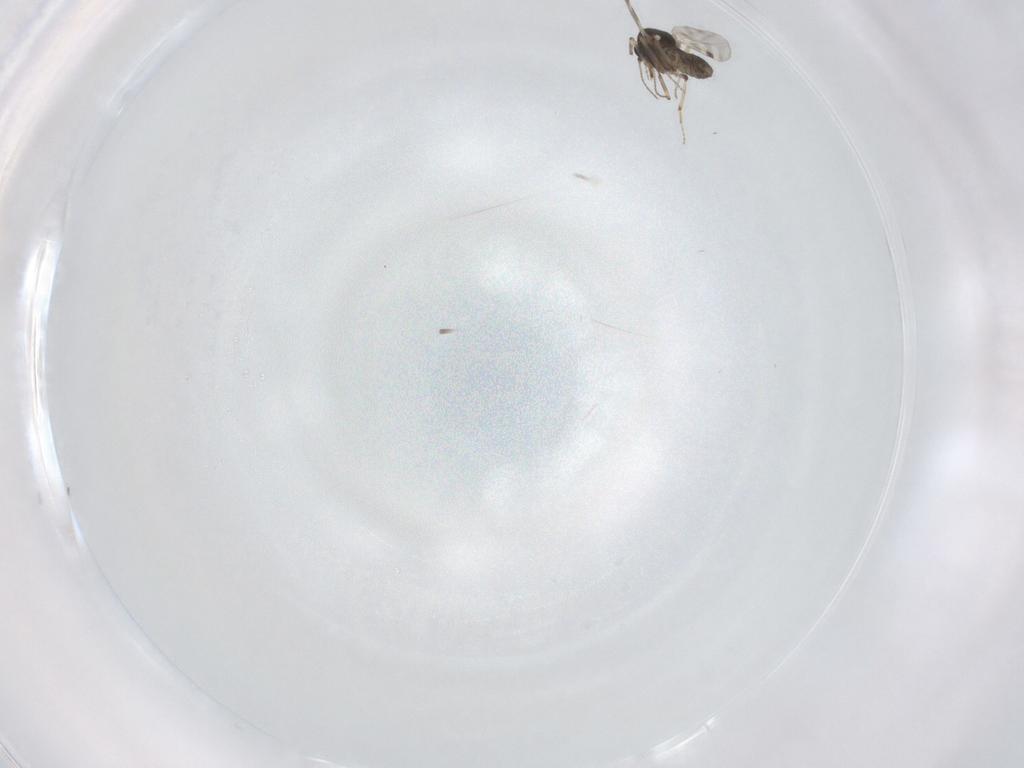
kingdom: Animalia
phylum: Arthropoda
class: Insecta
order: Diptera
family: Dolichopodidae
